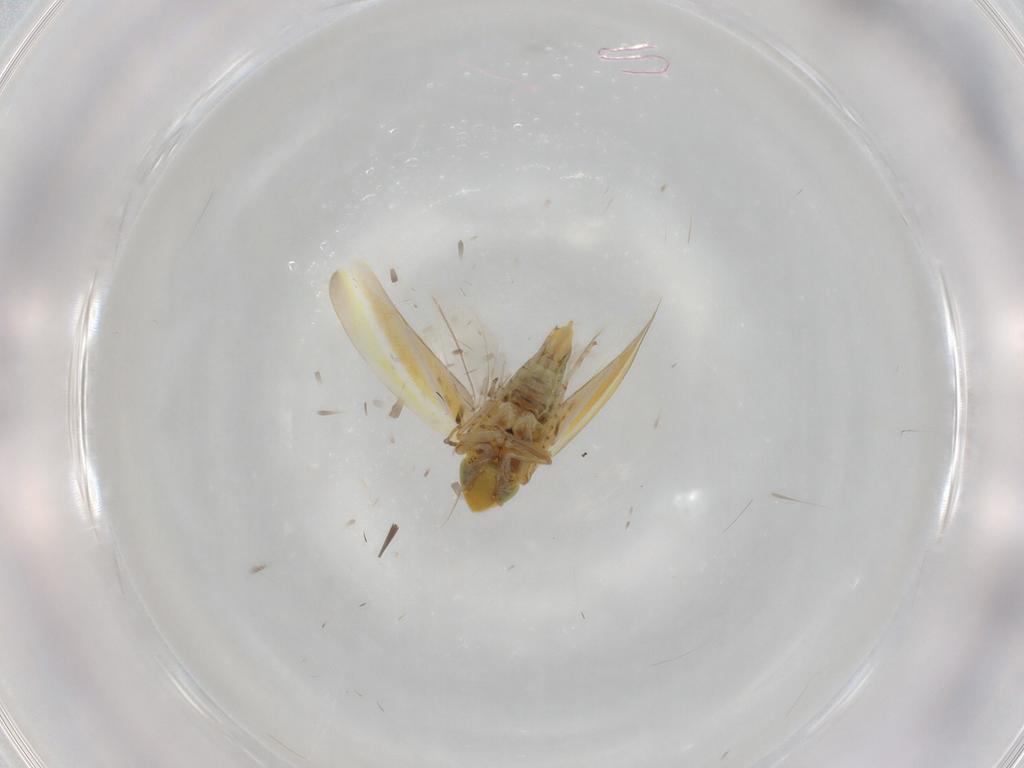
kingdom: Animalia
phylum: Arthropoda
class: Insecta
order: Hemiptera
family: Cicadellidae
